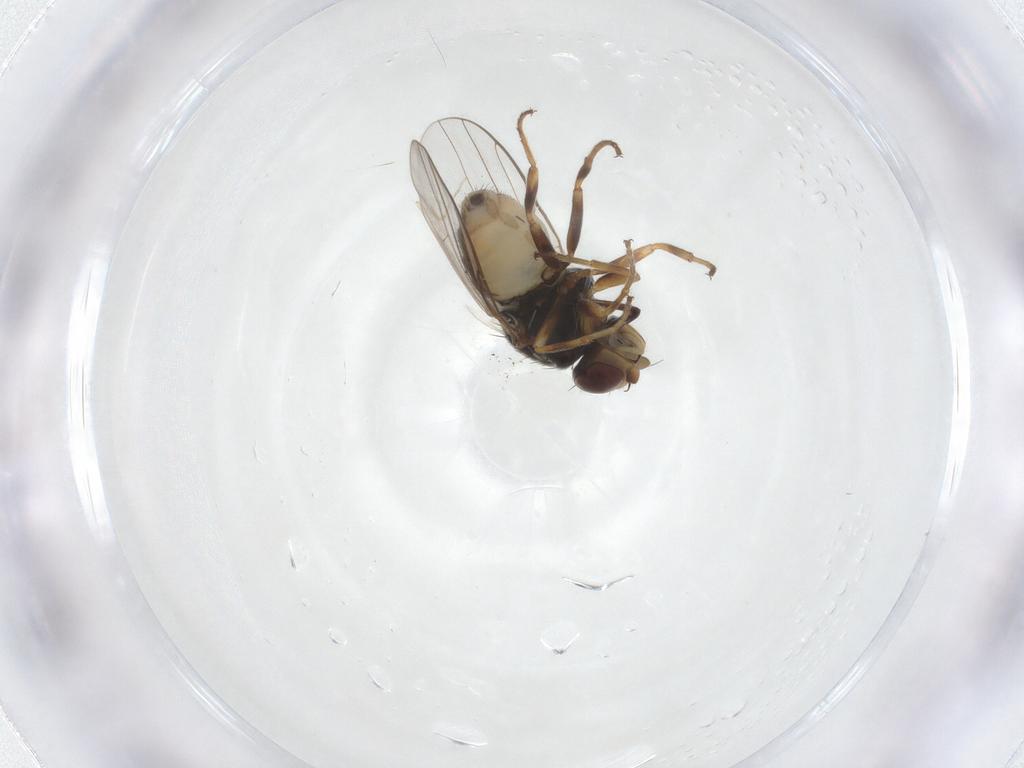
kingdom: Animalia
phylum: Arthropoda
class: Insecta
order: Diptera
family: Chloropidae
